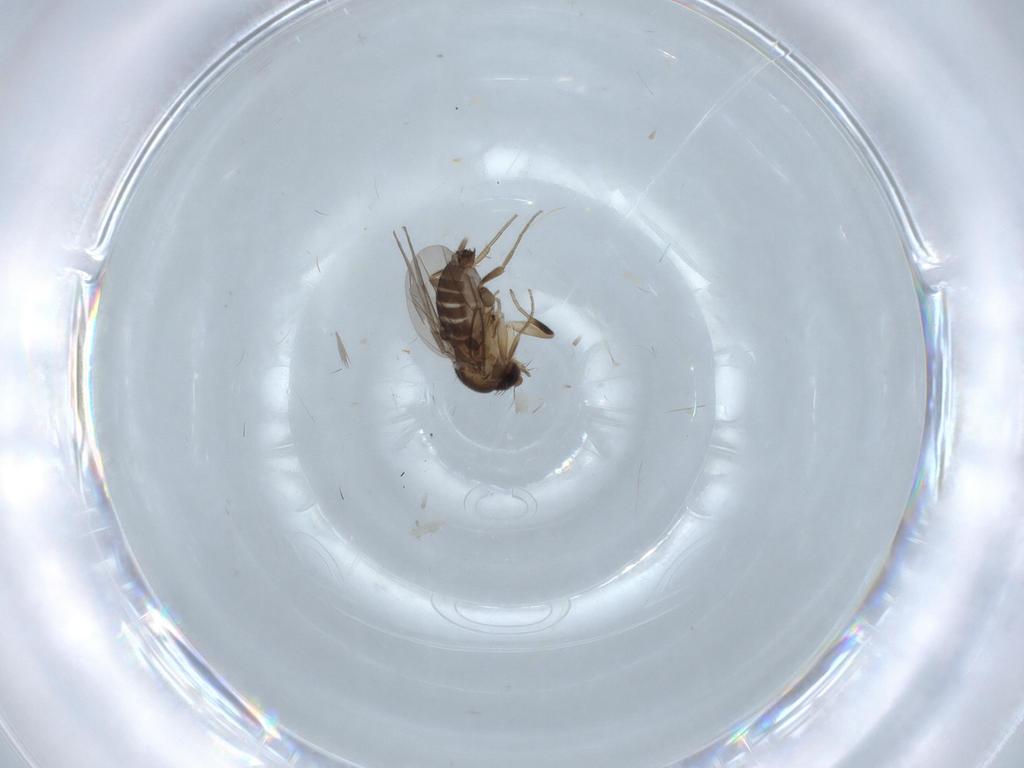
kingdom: Animalia
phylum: Arthropoda
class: Insecta
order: Diptera
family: Phoridae
